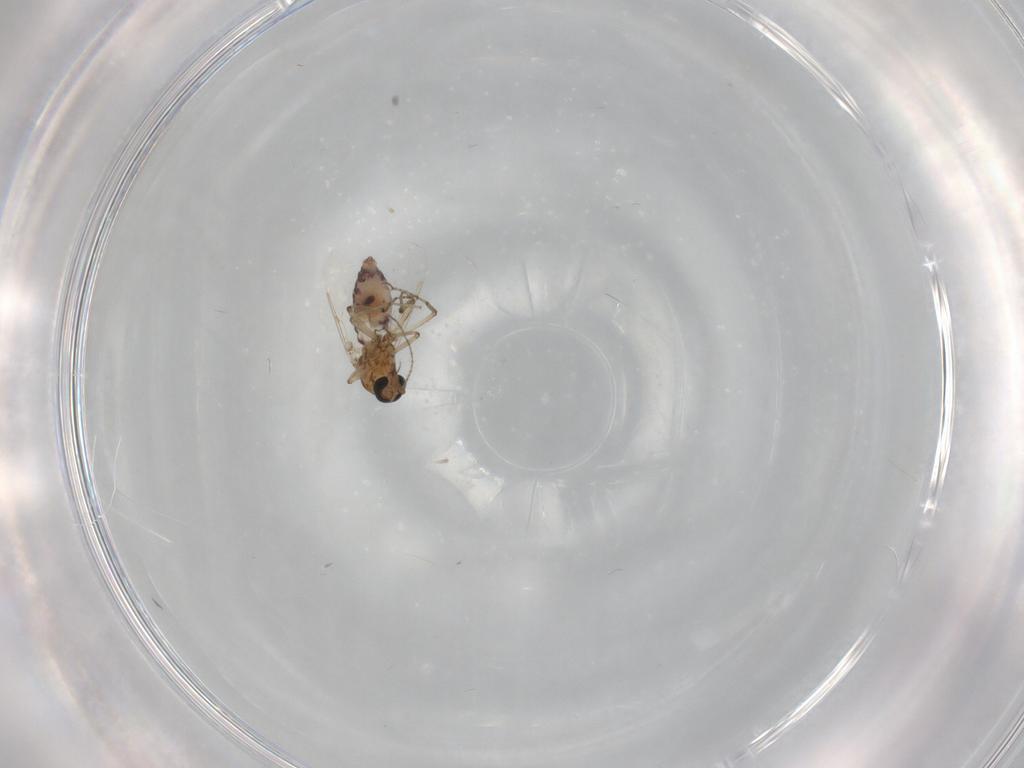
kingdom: Animalia
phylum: Arthropoda
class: Insecta
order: Diptera
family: Ceratopogonidae
